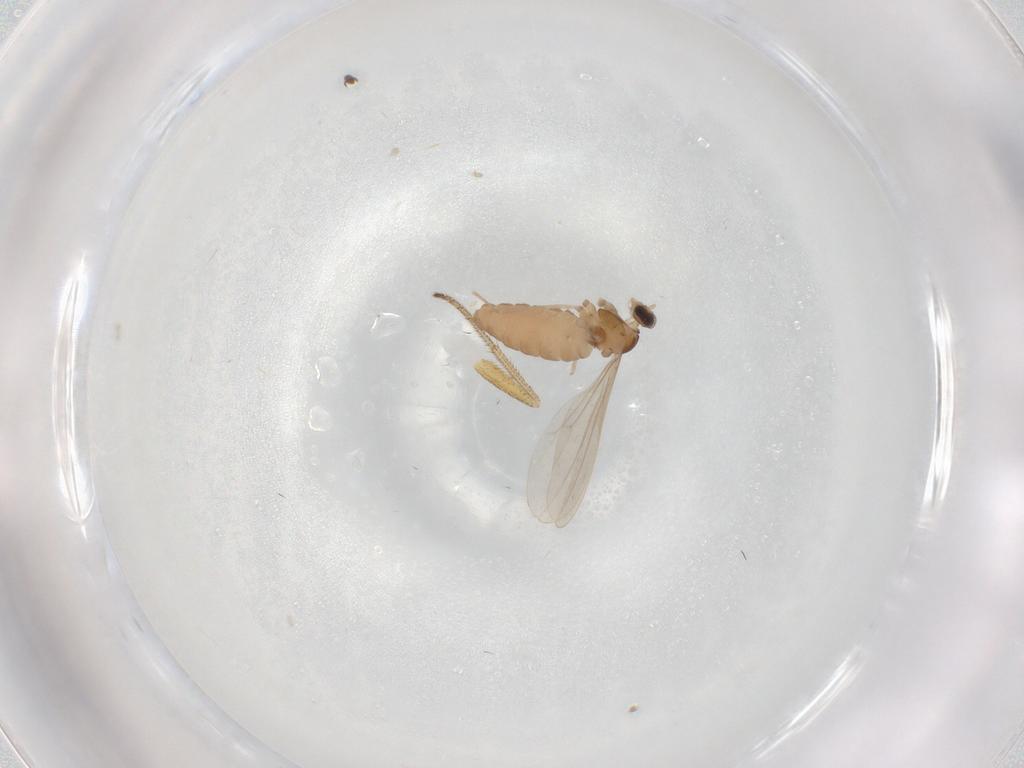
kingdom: Animalia
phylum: Arthropoda
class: Insecta
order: Diptera
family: Cecidomyiidae
